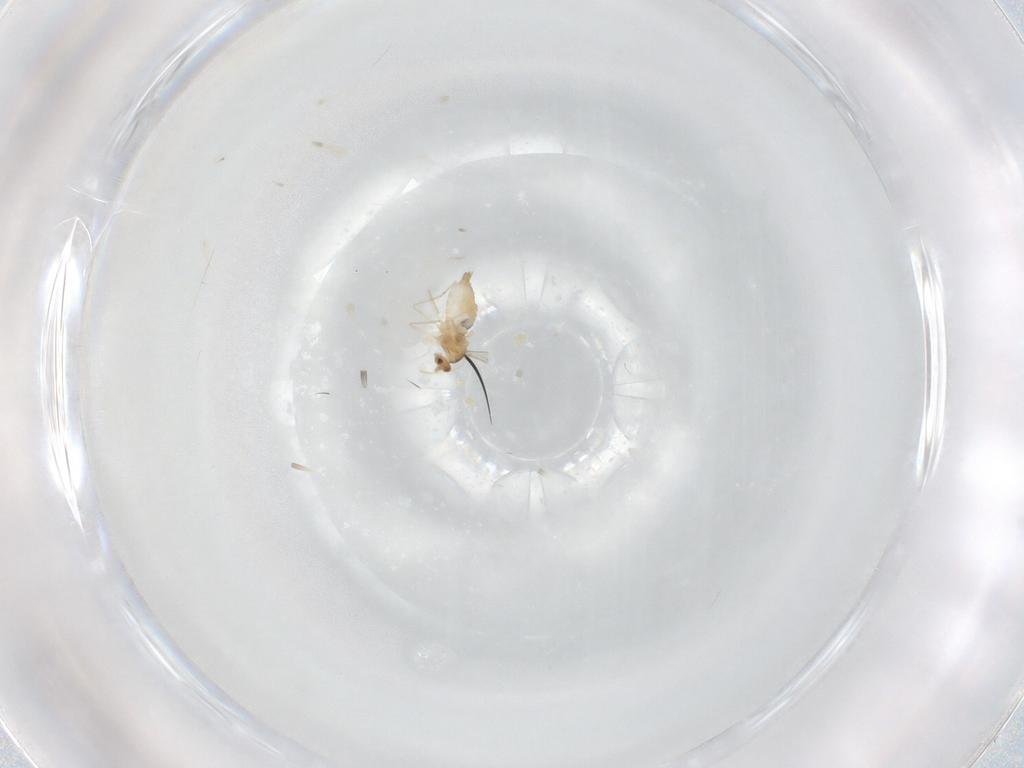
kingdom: Animalia
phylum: Arthropoda
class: Insecta
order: Diptera
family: Cecidomyiidae
